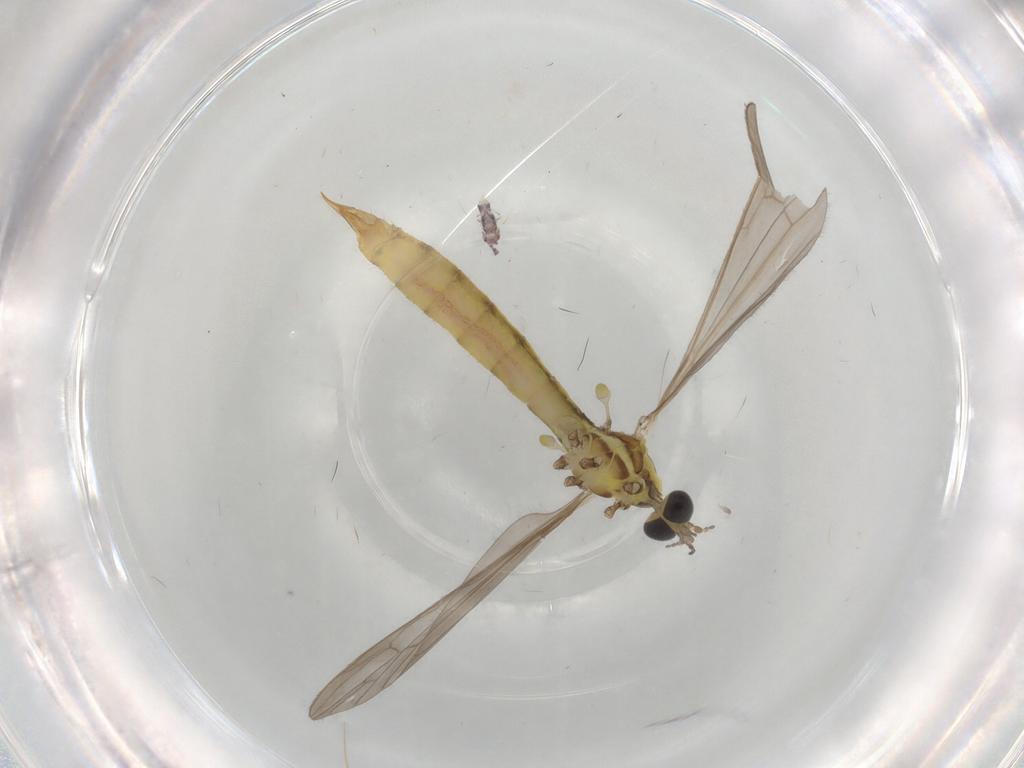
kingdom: Animalia
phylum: Arthropoda
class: Insecta
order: Diptera
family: Limoniidae
